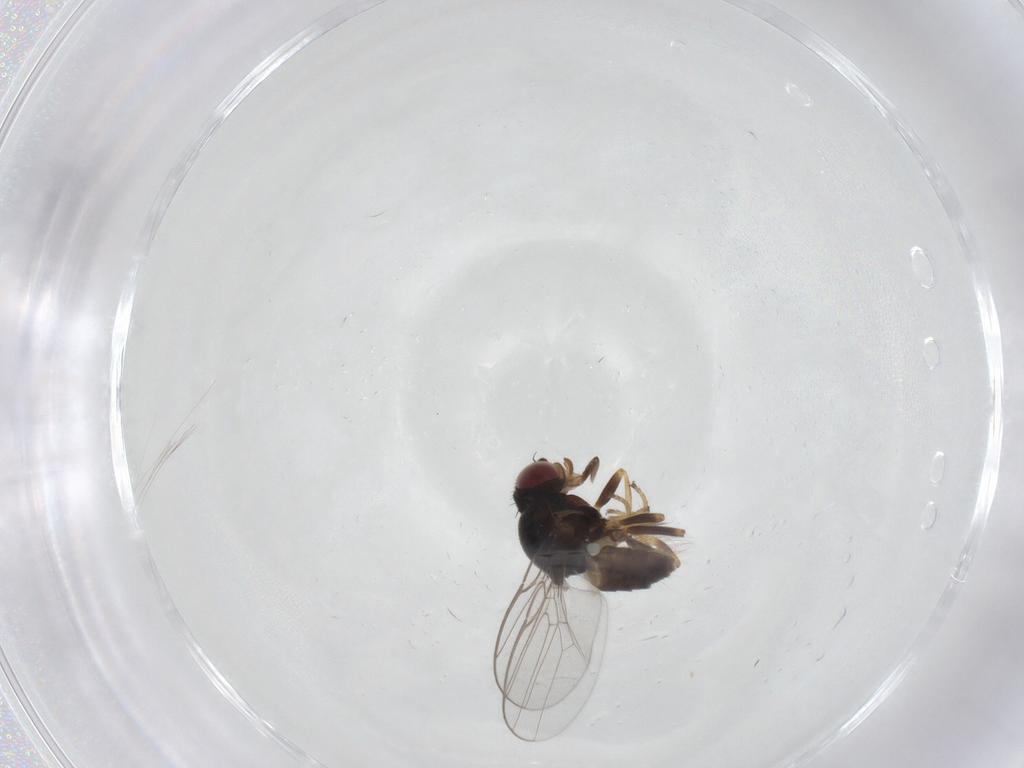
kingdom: Animalia
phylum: Arthropoda
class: Insecta
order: Diptera
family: Chloropidae
